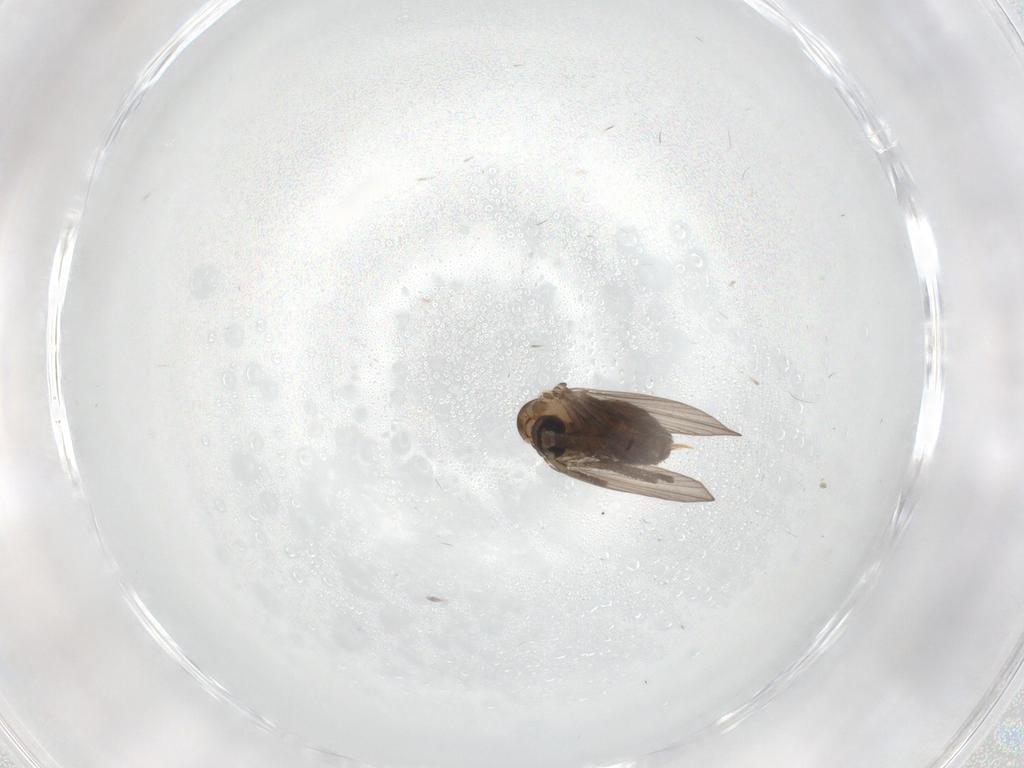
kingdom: Animalia
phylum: Arthropoda
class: Insecta
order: Diptera
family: Psychodidae
